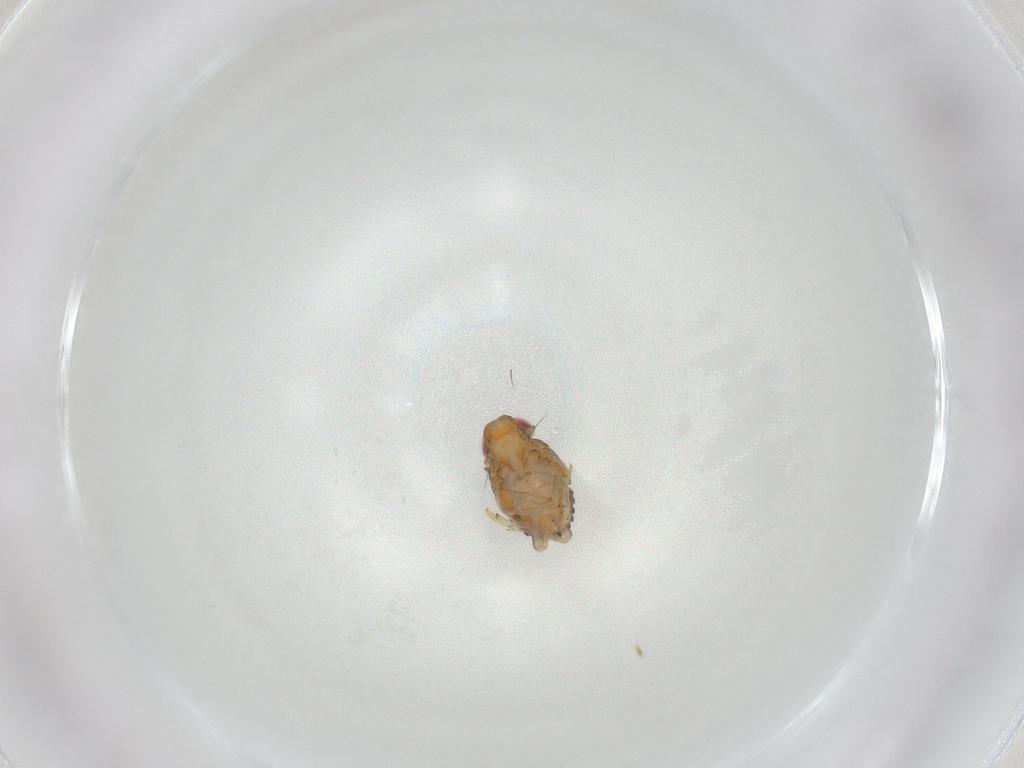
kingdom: Animalia
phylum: Arthropoda
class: Insecta
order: Hemiptera
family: Issidae
